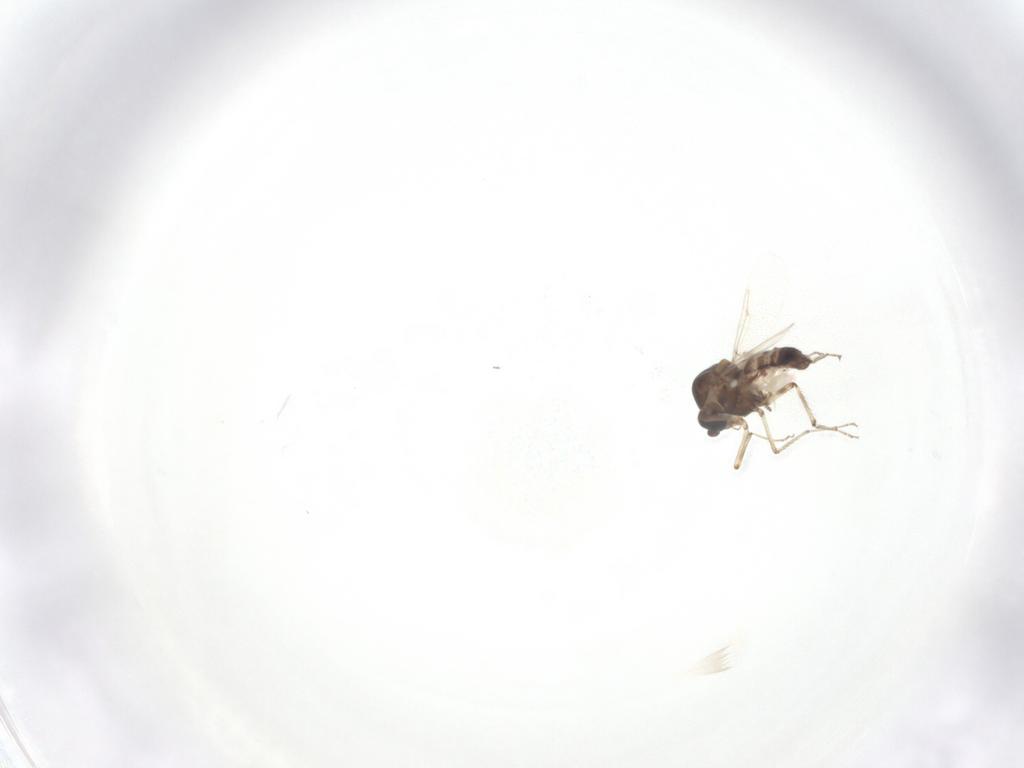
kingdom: Animalia
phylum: Arthropoda
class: Insecta
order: Diptera
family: Ceratopogonidae
